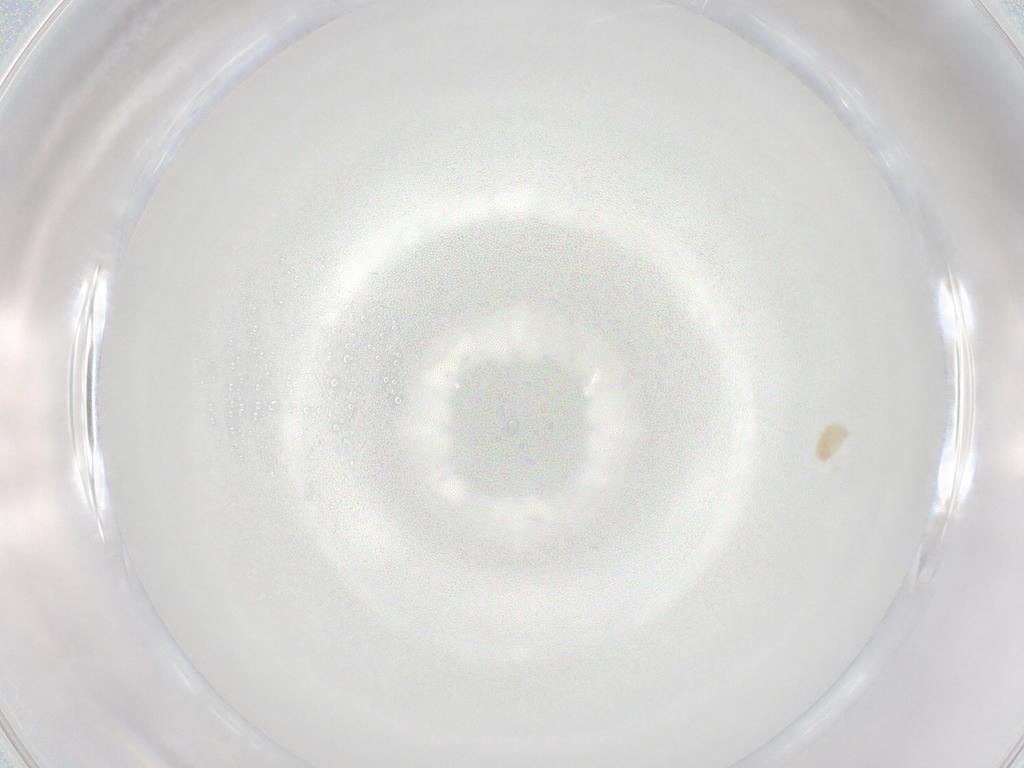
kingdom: Animalia
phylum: Arthropoda
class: Arachnida
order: Trombidiformes
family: Eupodidae
